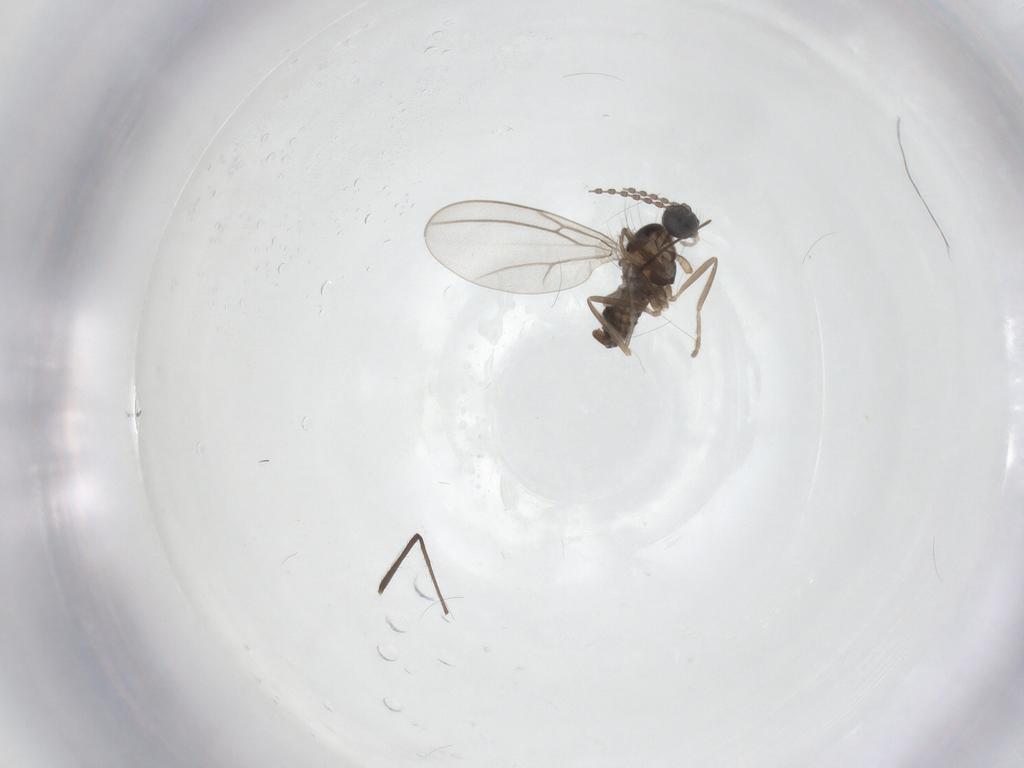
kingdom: Animalia
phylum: Arthropoda
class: Insecta
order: Diptera
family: Cecidomyiidae
